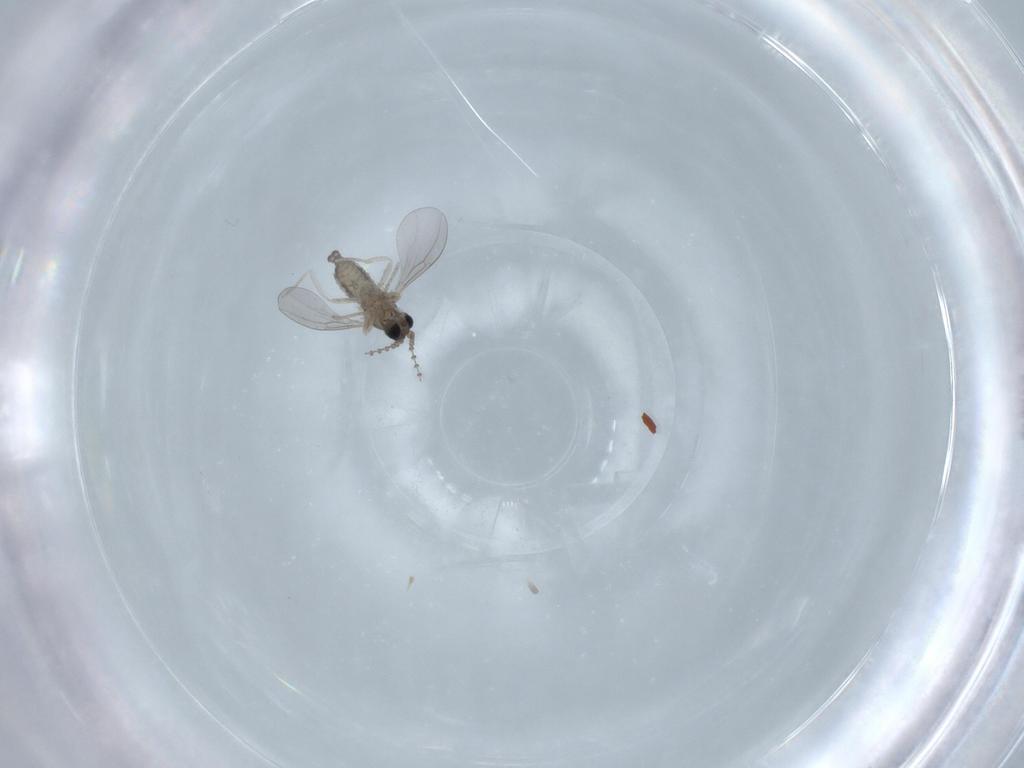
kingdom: Animalia
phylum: Arthropoda
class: Insecta
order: Diptera
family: Cecidomyiidae
